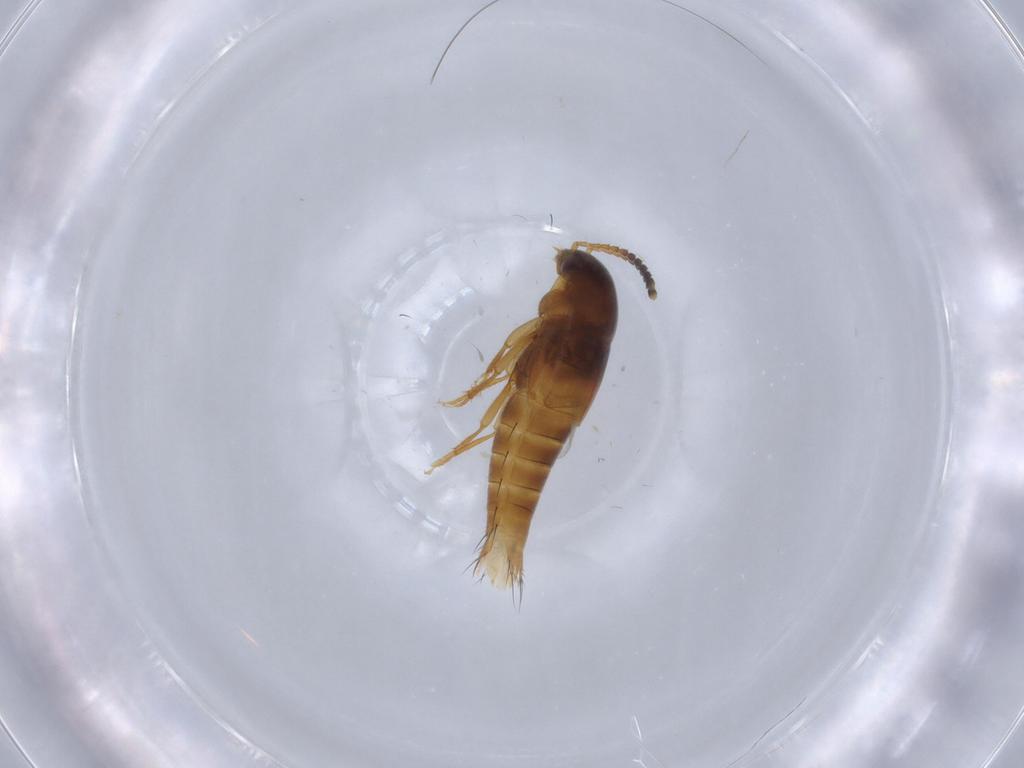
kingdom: Animalia
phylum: Arthropoda
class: Insecta
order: Coleoptera
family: Staphylinidae
